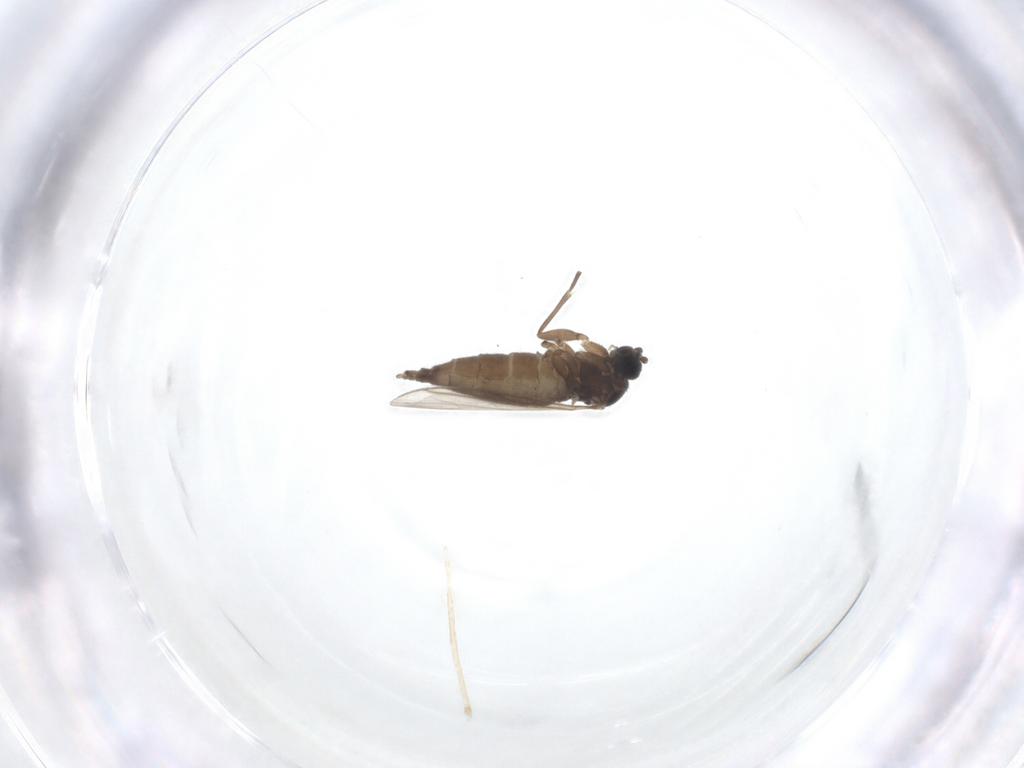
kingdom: Animalia
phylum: Arthropoda
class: Insecta
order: Diptera
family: Sciaridae
